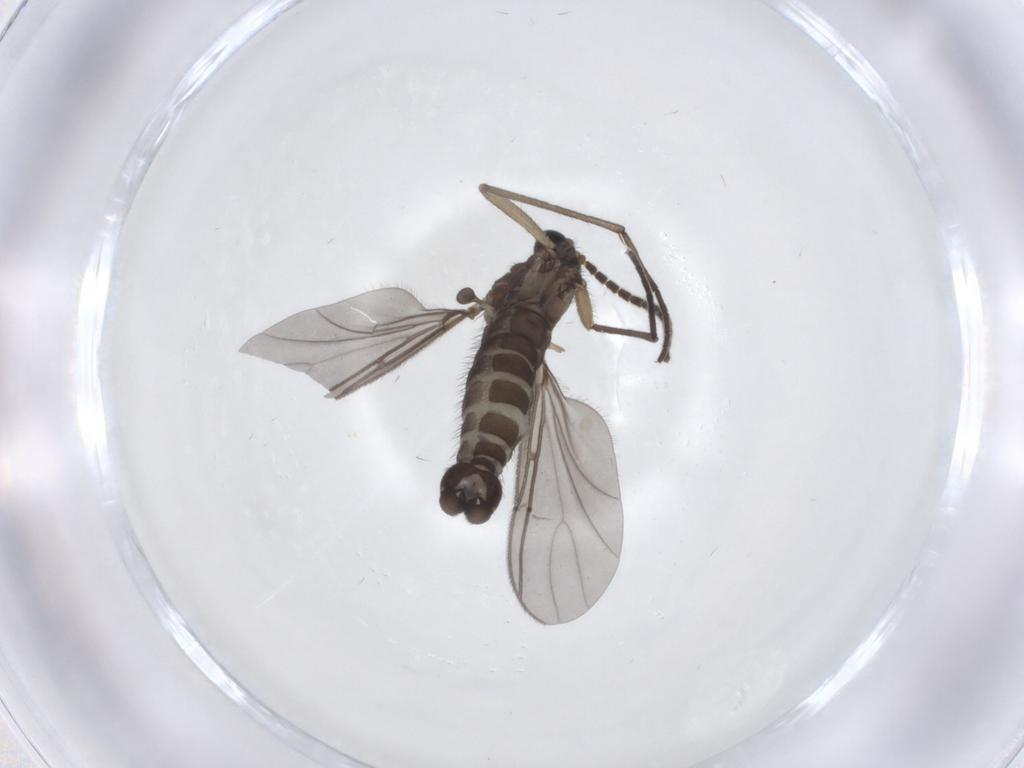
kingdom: Animalia
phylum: Arthropoda
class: Insecta
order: Diptera
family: Sciaridae
